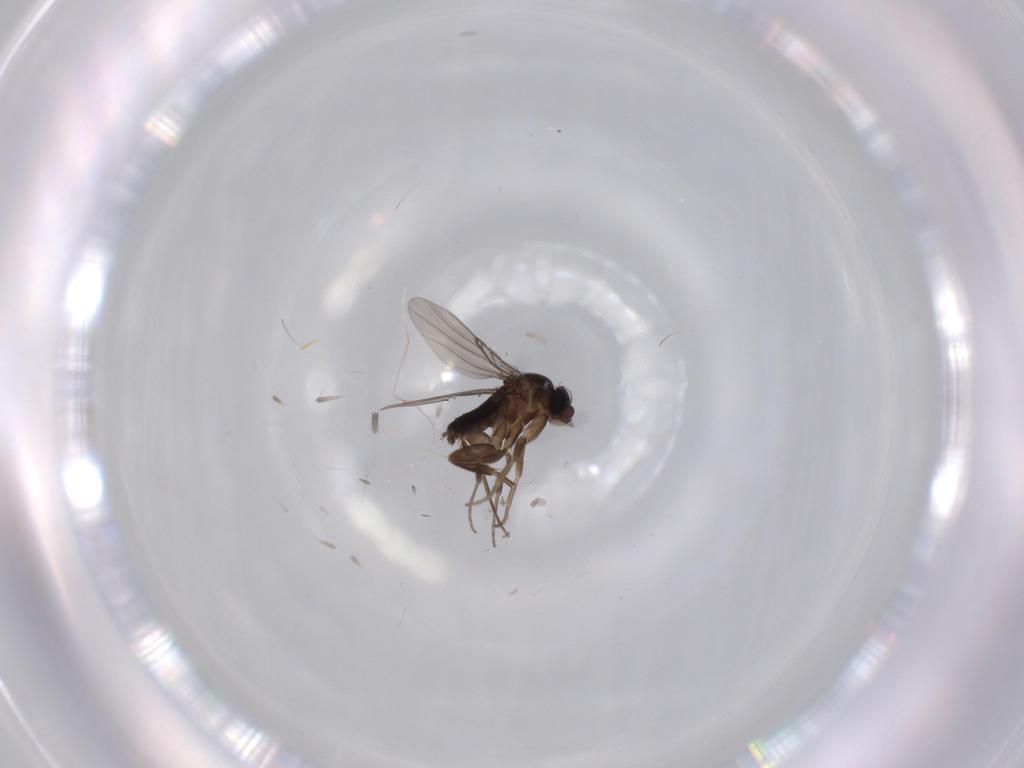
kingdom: Animalia
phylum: Arthropoda
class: Insecta
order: Diptera
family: Phoridae
